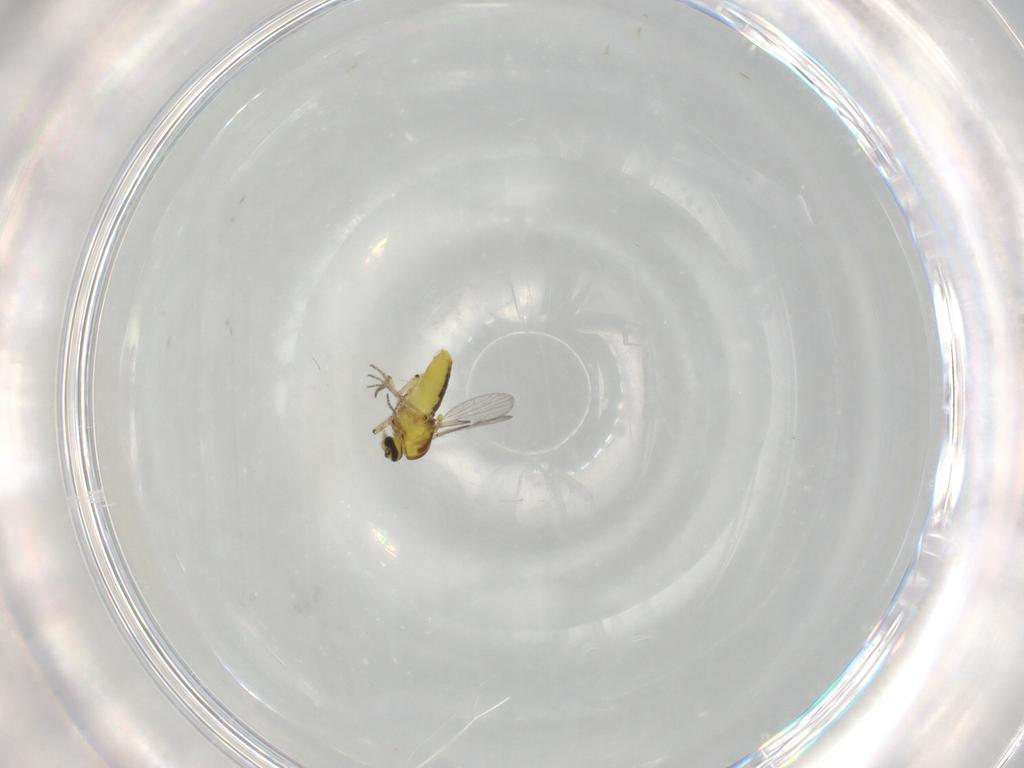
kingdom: Animalia
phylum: Arthropoda
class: Insecta
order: Diptera
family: Ceratopogonidae
